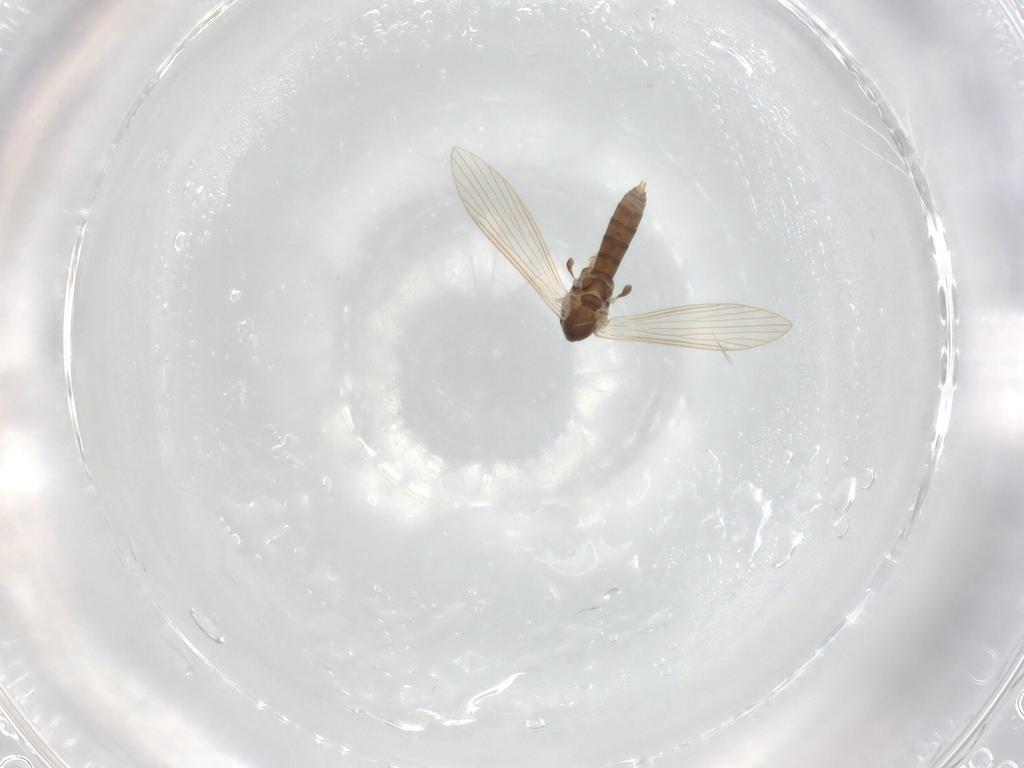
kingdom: Animalia
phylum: Arthropoda
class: Insecta
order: Diptera
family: Psychodidae
